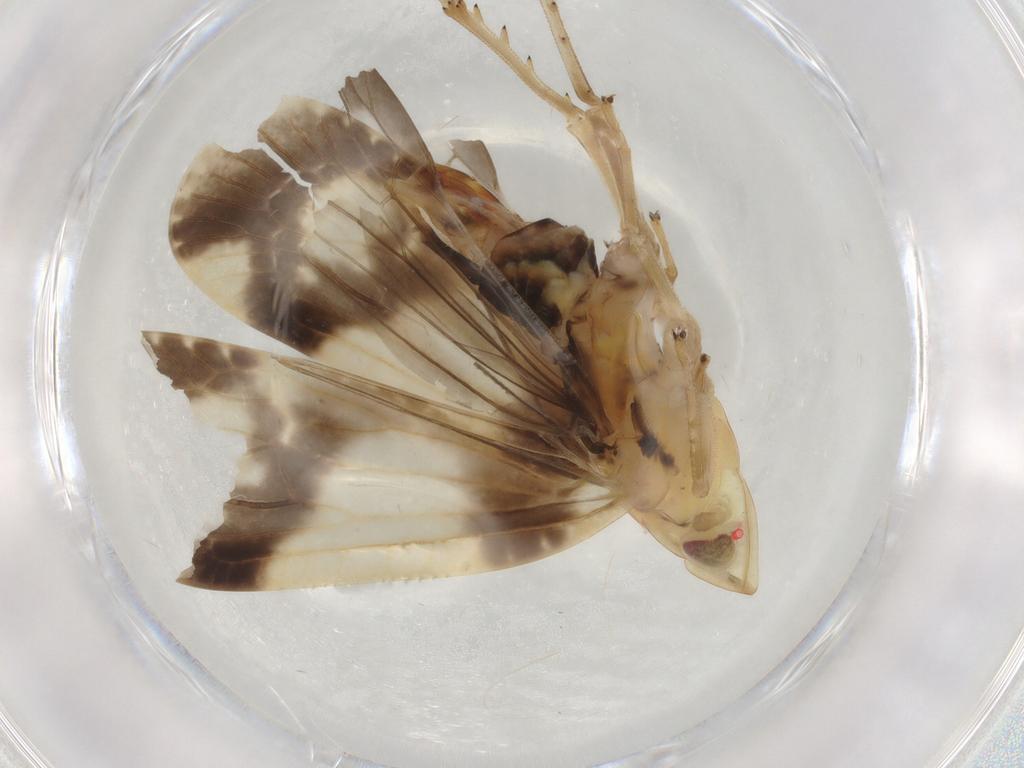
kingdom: Animalia
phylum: Arthropoda
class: Insecta
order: Hemiptera
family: Tropiduchidae
